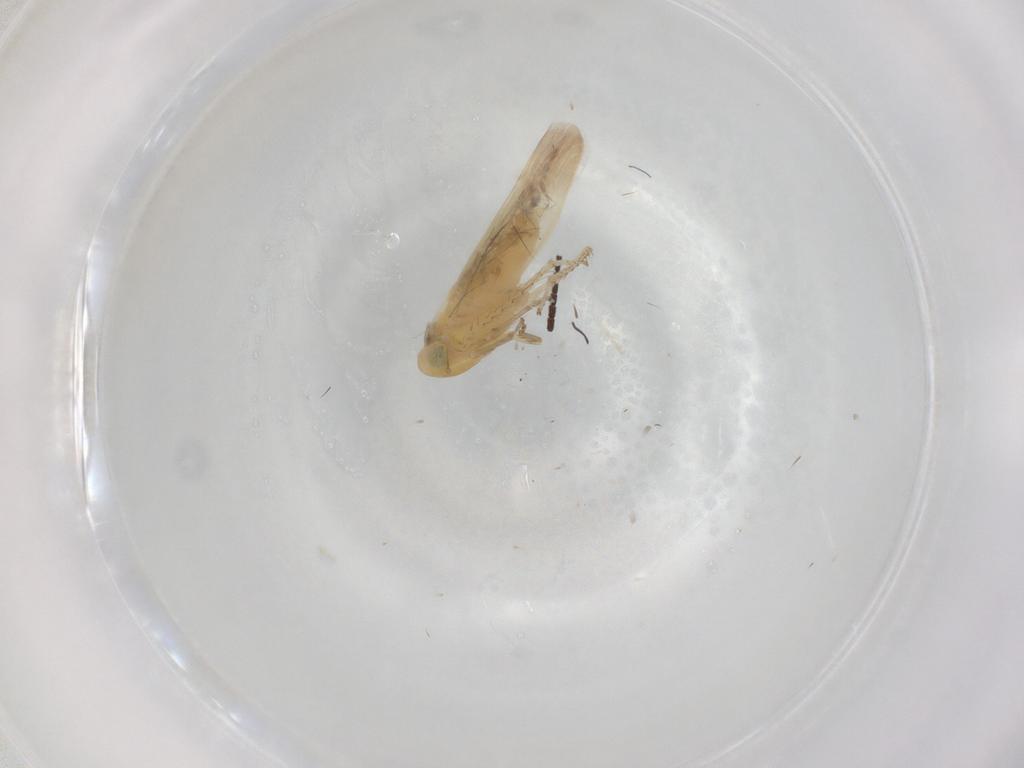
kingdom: Animalia
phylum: Arthropoda
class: Insecta
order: Hemiptera
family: Cicadellidae
